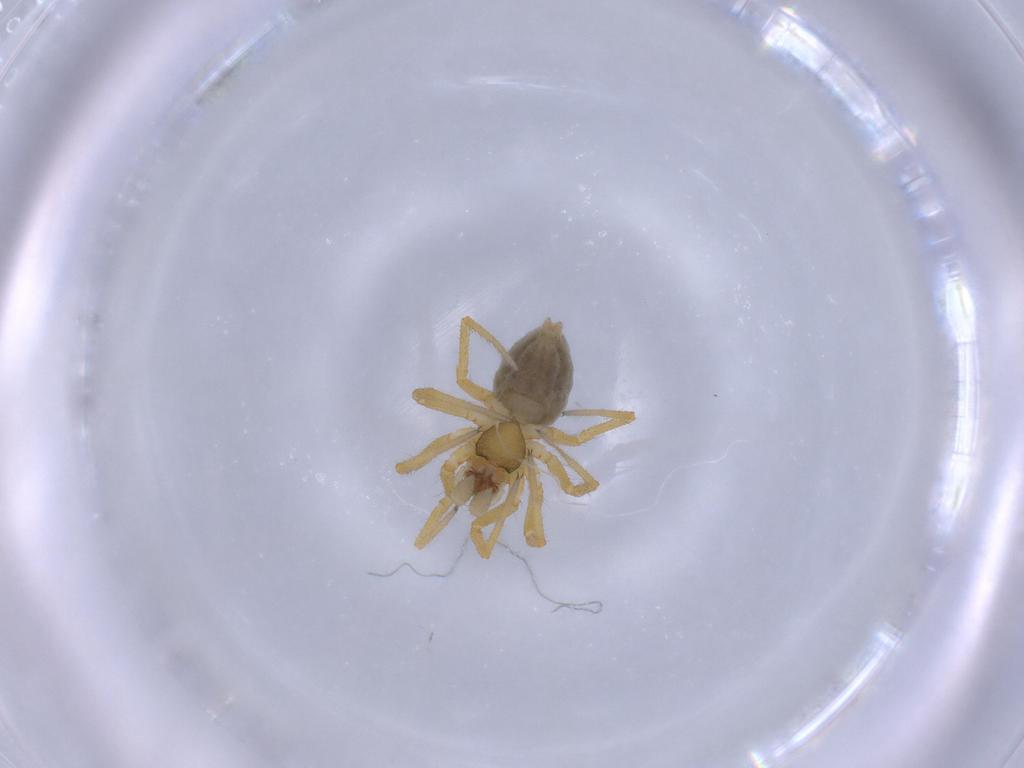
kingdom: Animalia
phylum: Arthropoda
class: Arachnida
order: Araneae
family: Linyphiidae
